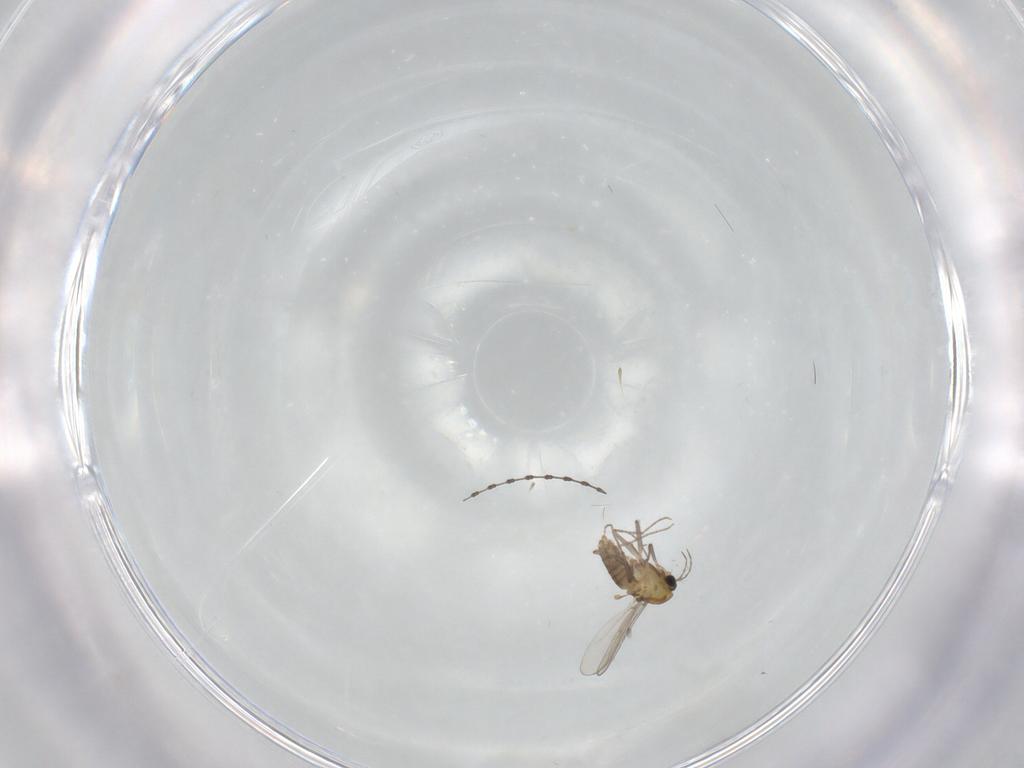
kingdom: Animalia
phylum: Arthropoda
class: Insecta
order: Diptera
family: Cecidomyiidae
